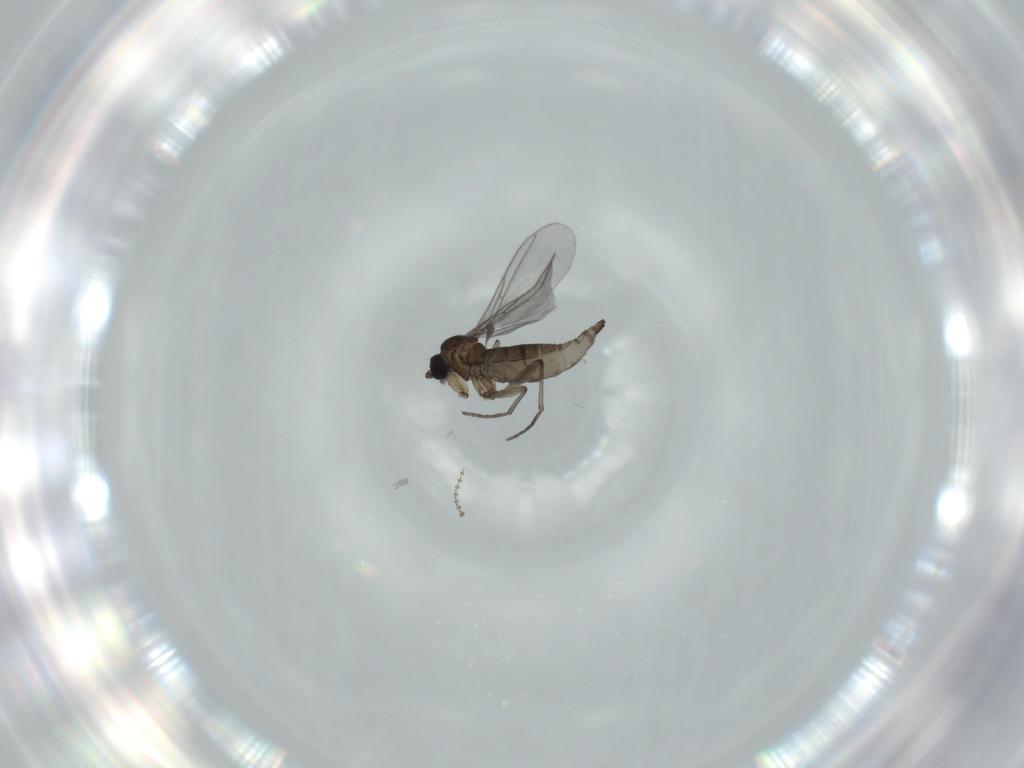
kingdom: Animalia
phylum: Arthropoda
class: Insecta
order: Diptera
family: Cecidomyiidae
